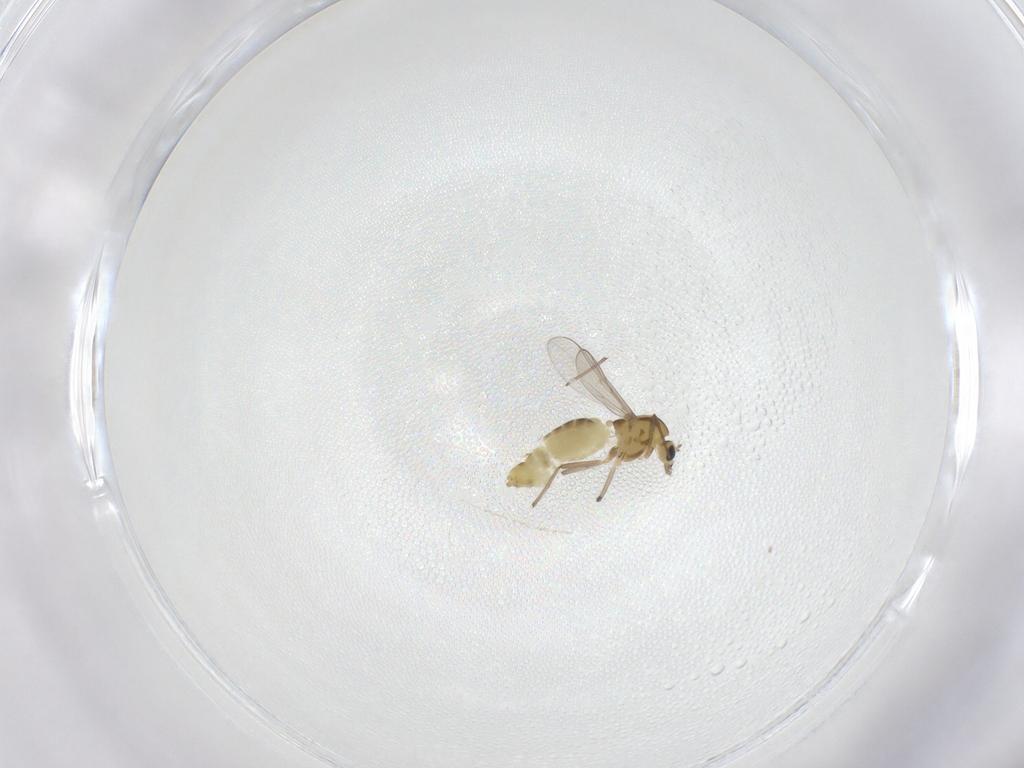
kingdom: Animalia
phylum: Arthropoda
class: Insecta
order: Diptera
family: Chironomidae
